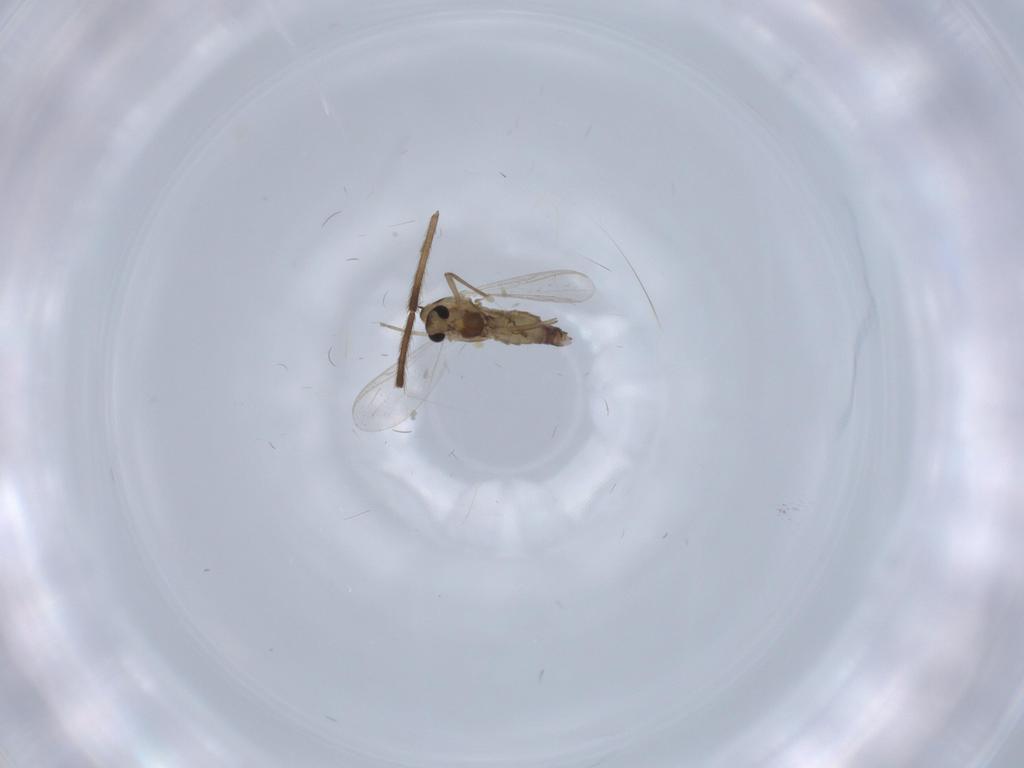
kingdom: Animalia
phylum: Arthropoda
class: Insecta
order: Diptera
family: Chironomidae
